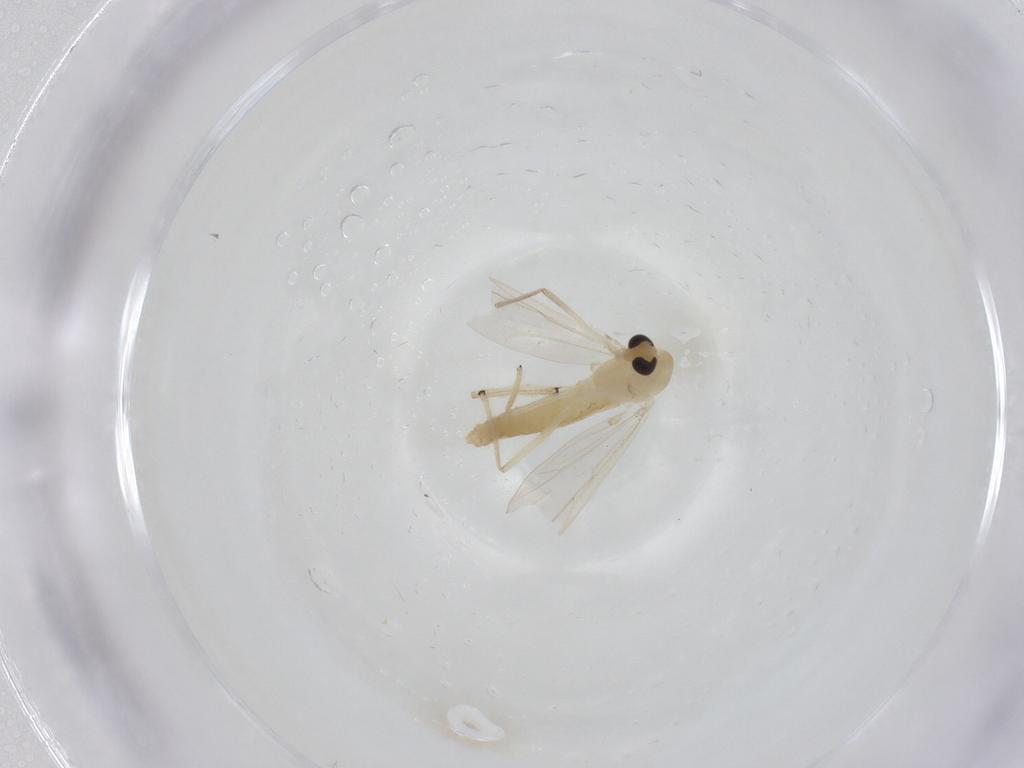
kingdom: Animalia
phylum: Arthropoda
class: Insecta
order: Diptera
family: Chironomidae
